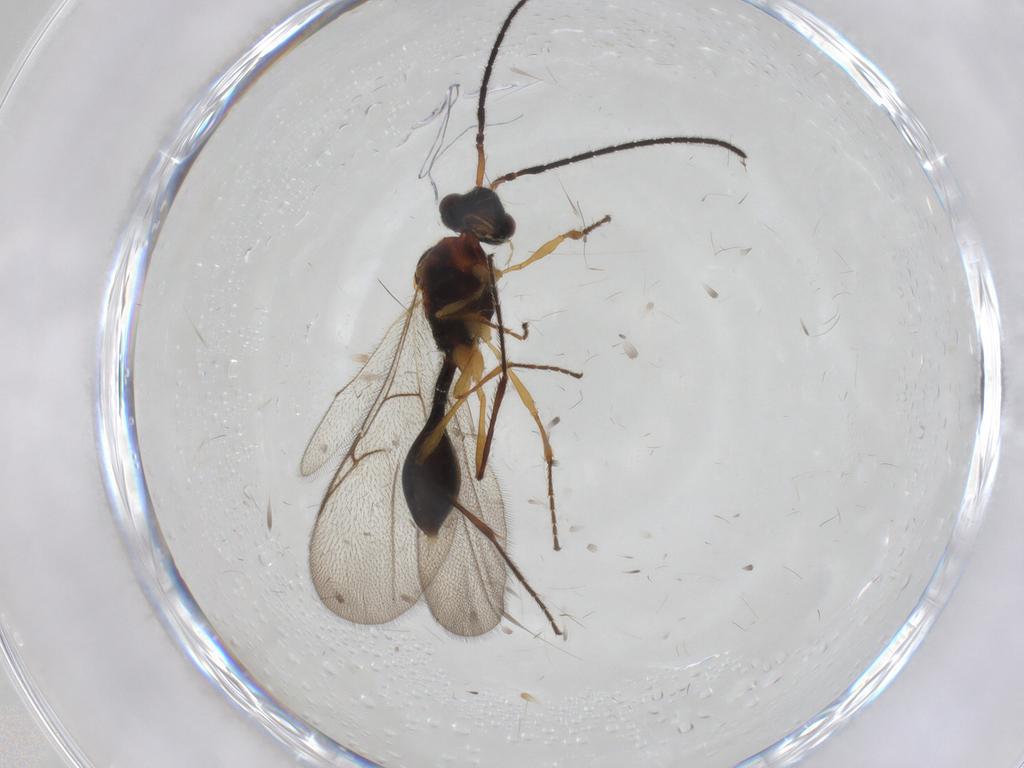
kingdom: Animalia
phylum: Arthropoda
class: Insecta
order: Hymenoptera
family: Diapriidae
